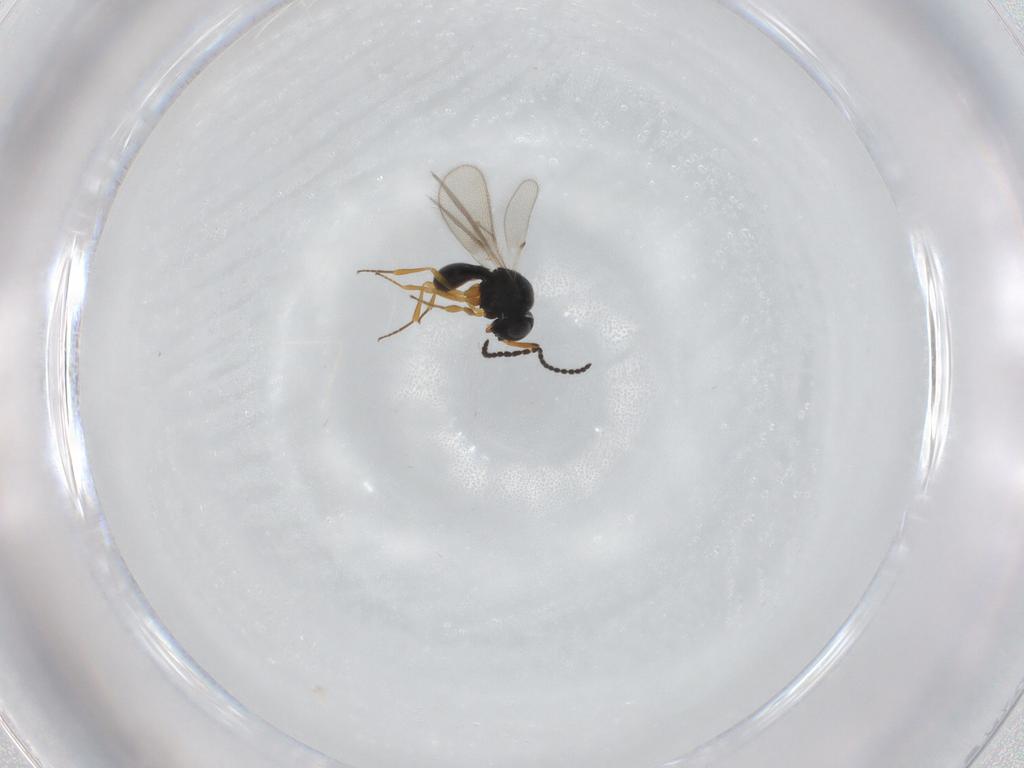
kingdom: Animalia
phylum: Arthropoda
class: Insecta
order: Hymenoptera
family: Scelionidae
